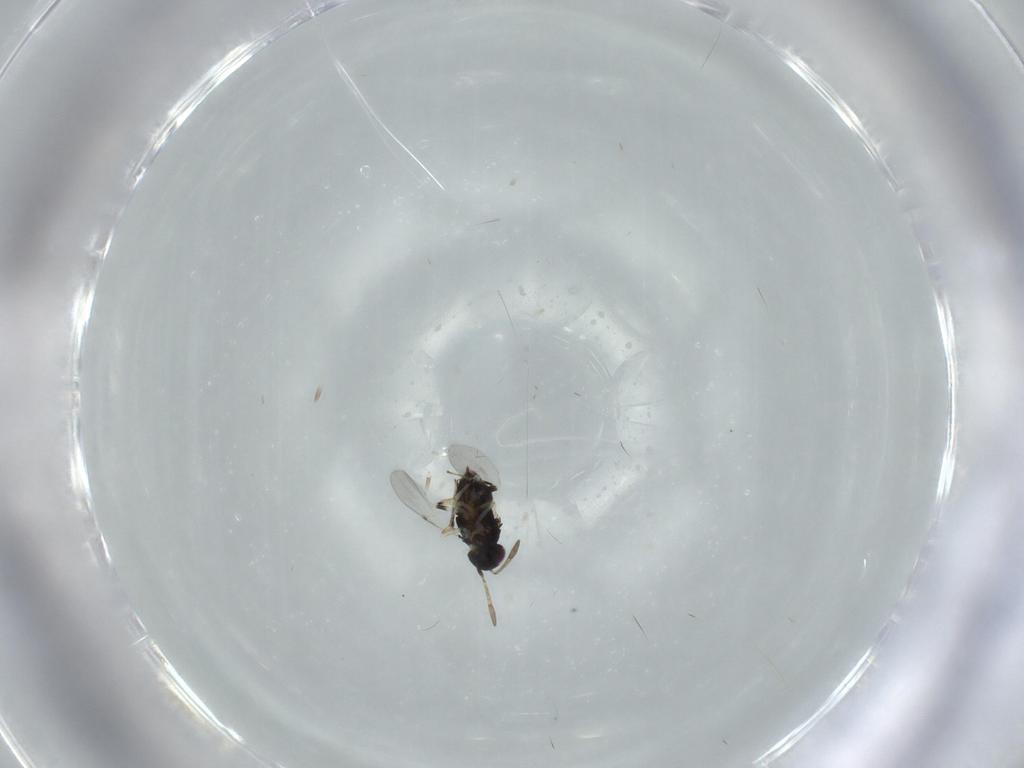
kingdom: Animalia
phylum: Arthropoda
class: Insecta
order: Hymenoptera
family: Encyrtidae
